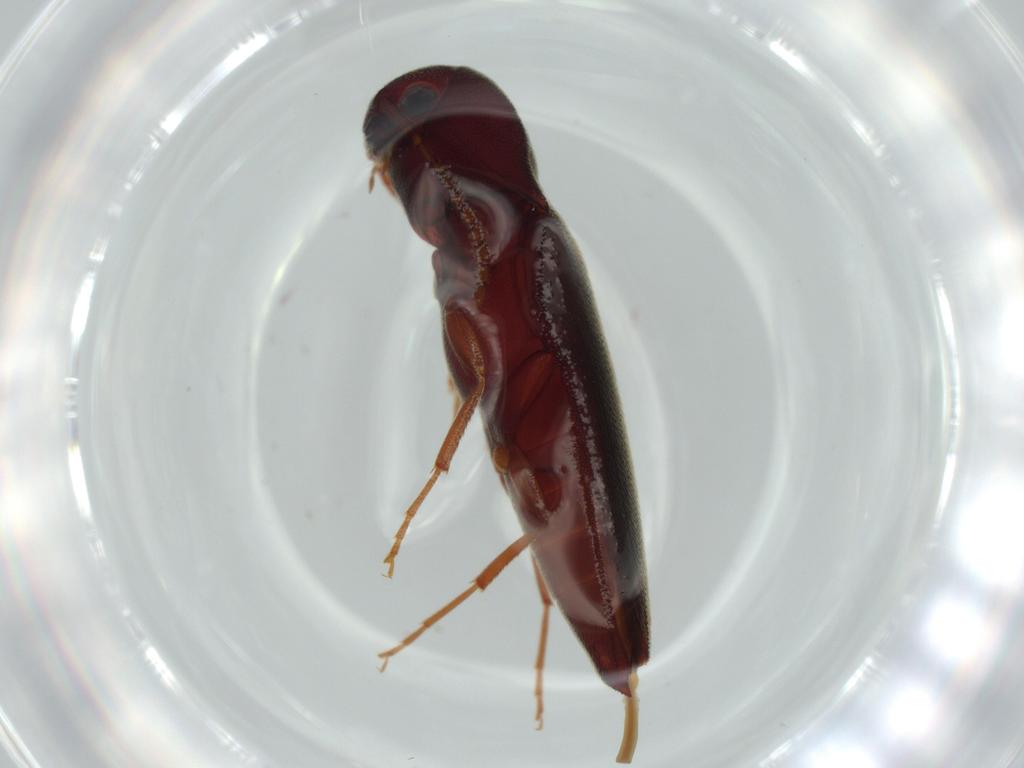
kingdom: Animalia
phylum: Arthropoda
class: Insecta
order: Coleoptera
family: Eucnemidae
